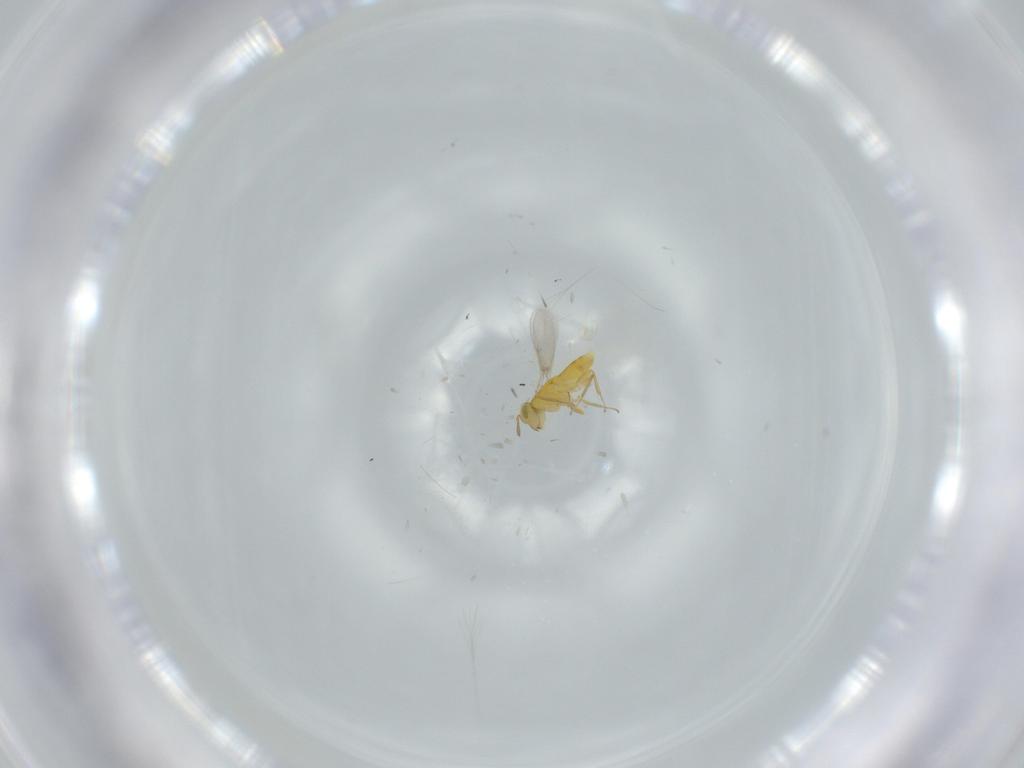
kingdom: Animalia
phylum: Arthropoda
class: Insecta
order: Hymenoptera
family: Aphelinidae
